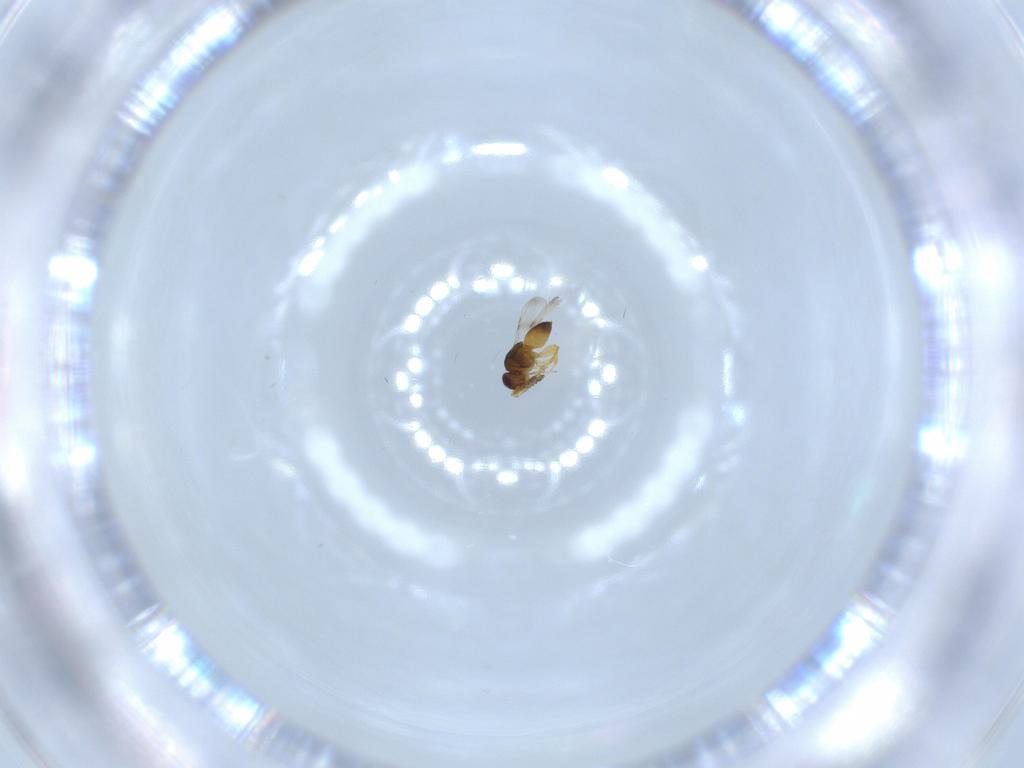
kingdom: Animalia
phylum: Arthropoda
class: Insecta
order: Hymenoptera
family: Ceraphronidae
